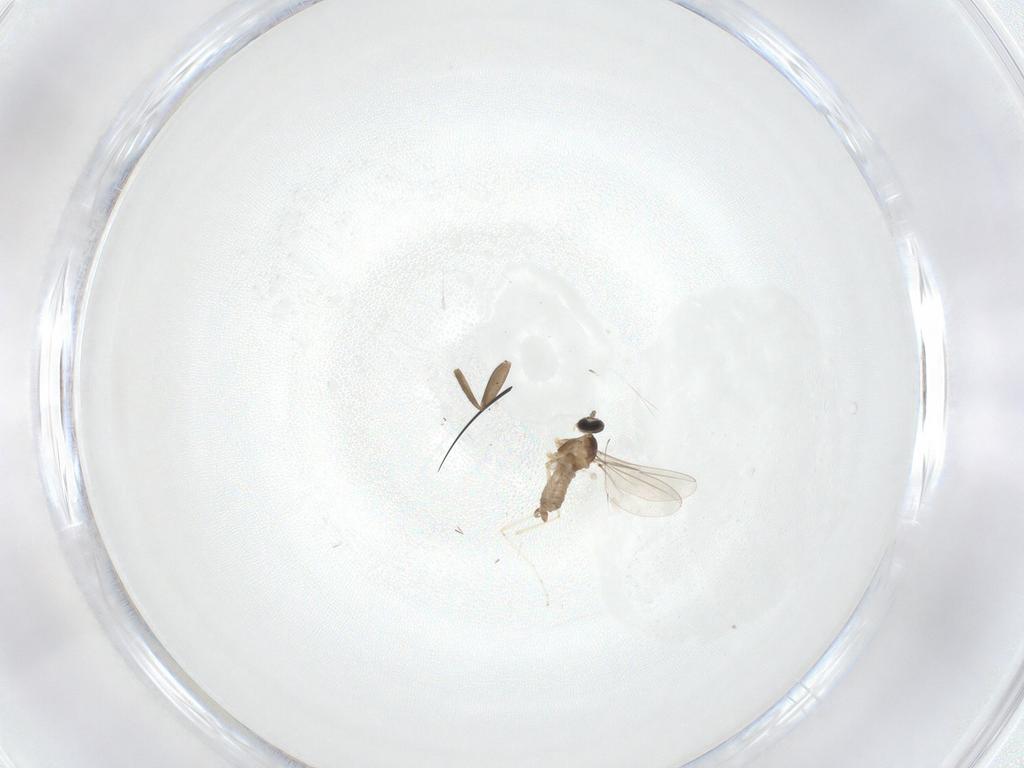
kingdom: Animalia
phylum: Arthropoda
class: Insecta
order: Diptera
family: Cecidomyiidae
